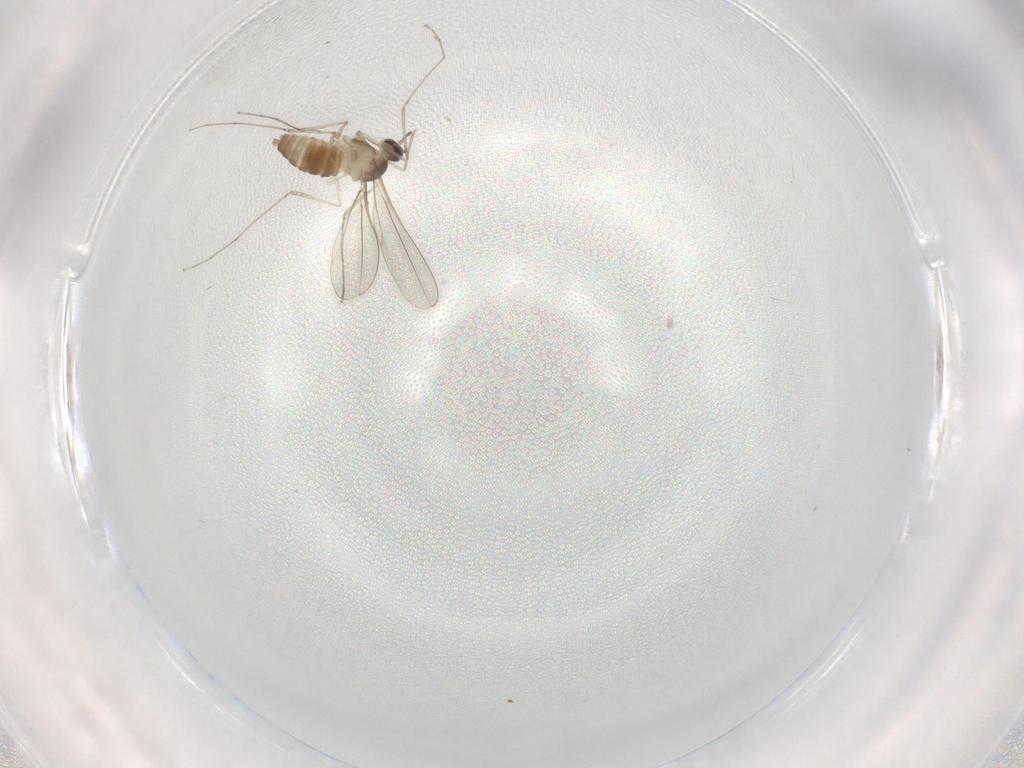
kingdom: Animalia
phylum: Arthropoda
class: Insecta
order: Diptera
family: Cecidomyiidae
